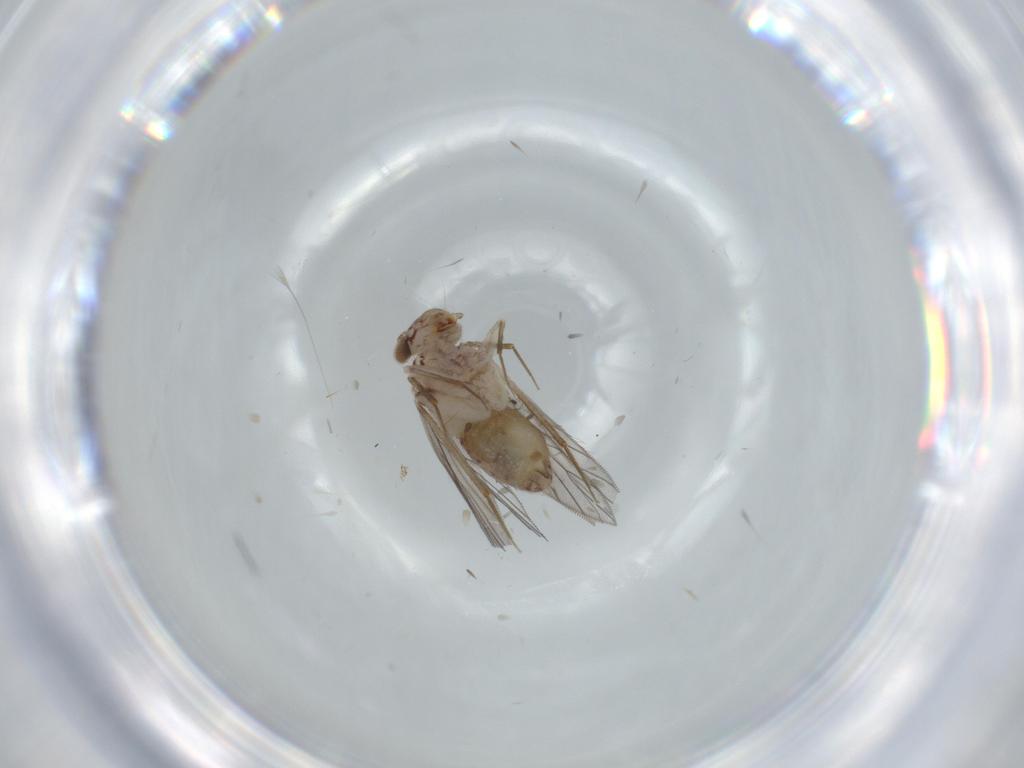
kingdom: Animalia
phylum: Arthropoda
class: Insecta
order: Psocodea
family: Lepidopsocidae
